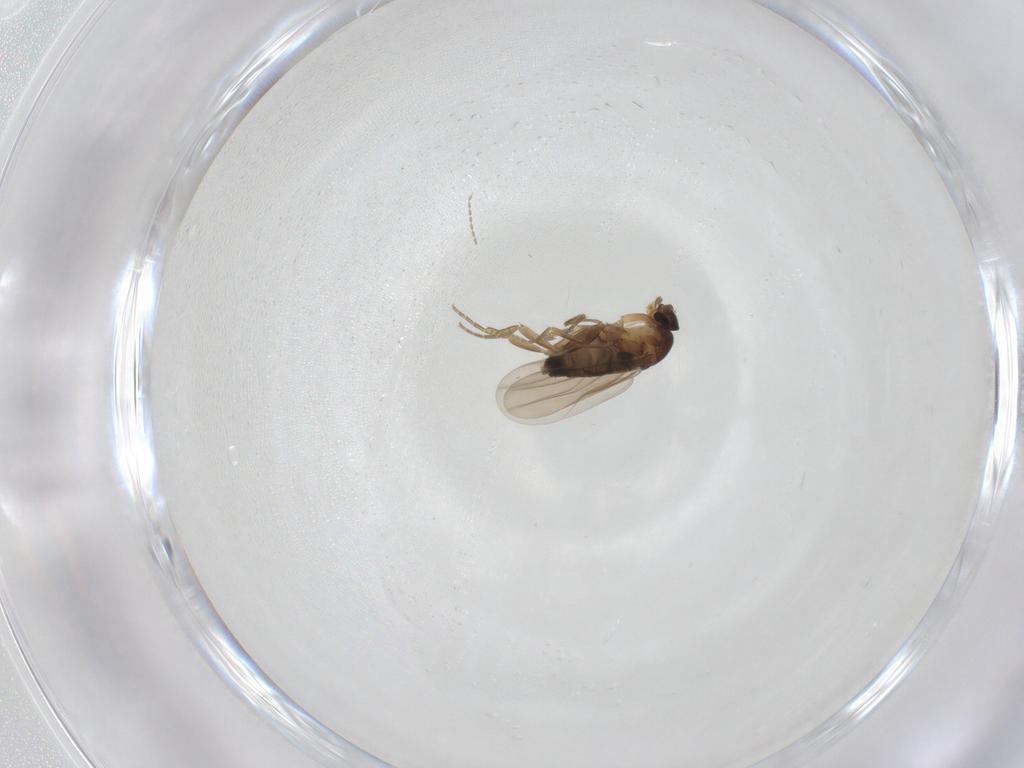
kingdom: Animalia
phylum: Arthropoda
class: Insecta
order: Diptera
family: Phoridae
